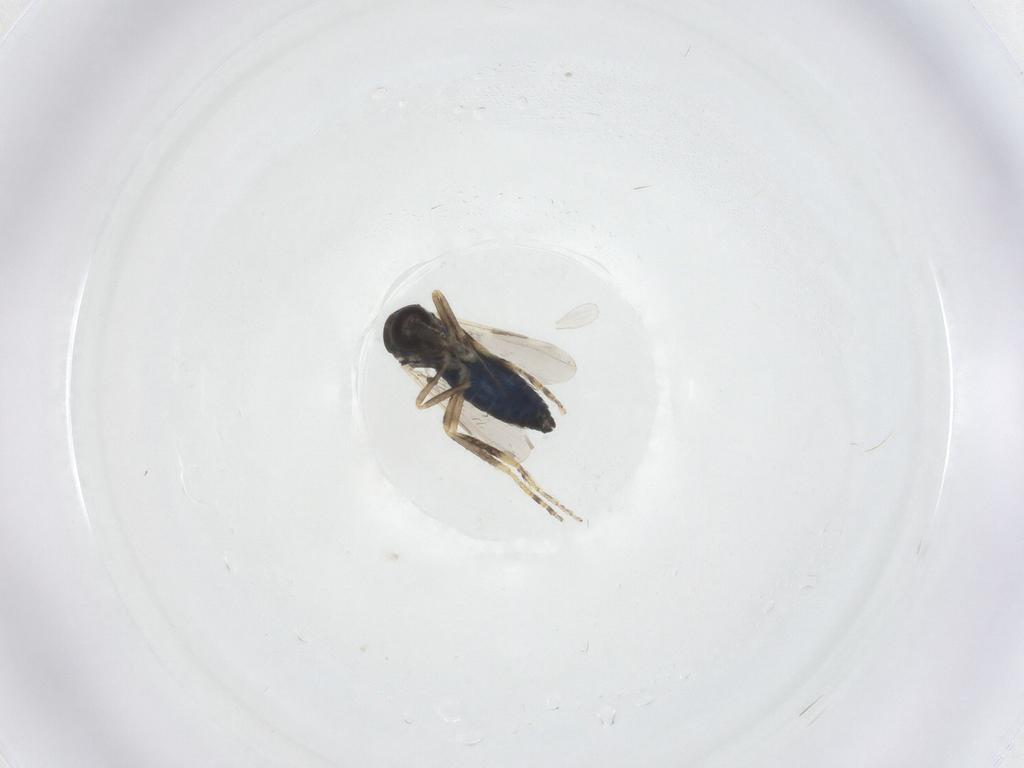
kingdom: Animalia
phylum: Arthropoda
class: Insecta
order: Diptera
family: Ceratopogonidae
